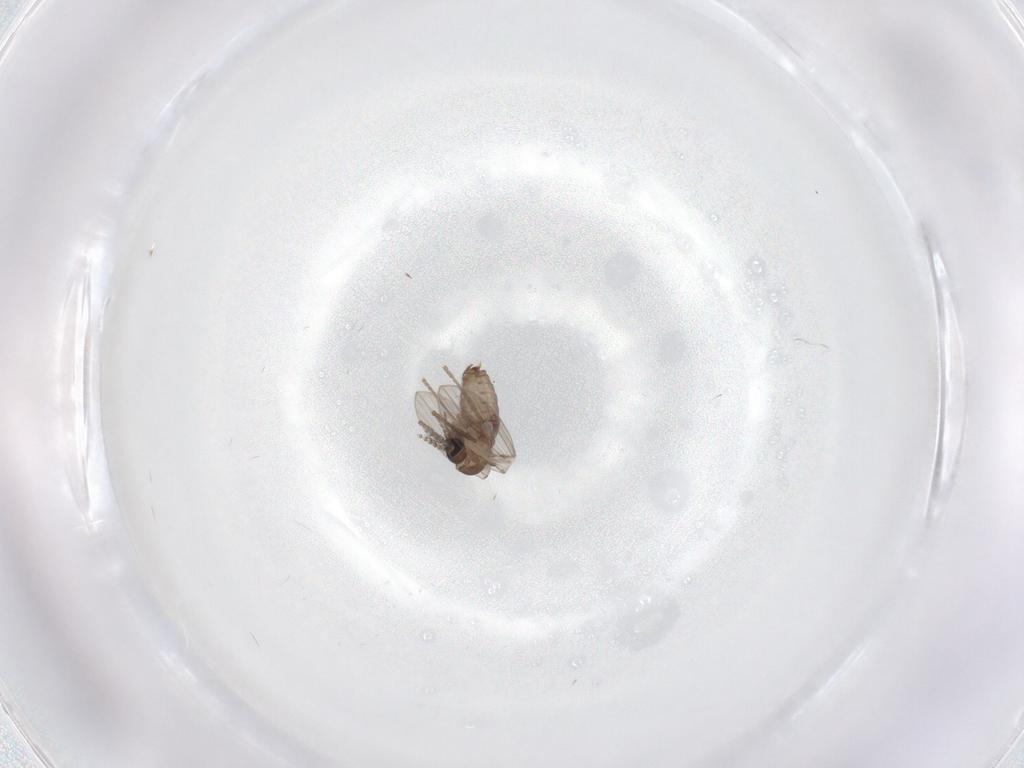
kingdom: Animalia
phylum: Arthropoda
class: Insecta
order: Diptera
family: Psychodidae
